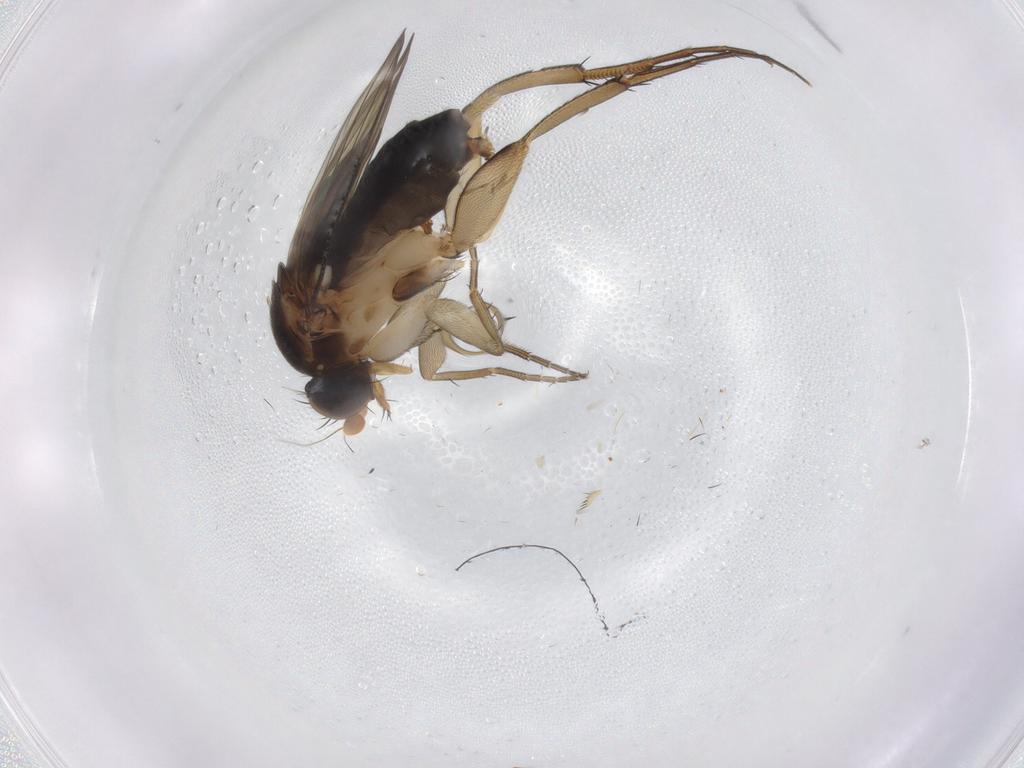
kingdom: Animalia
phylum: Arthropoda
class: Insecta
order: Diptera
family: Phoridae
